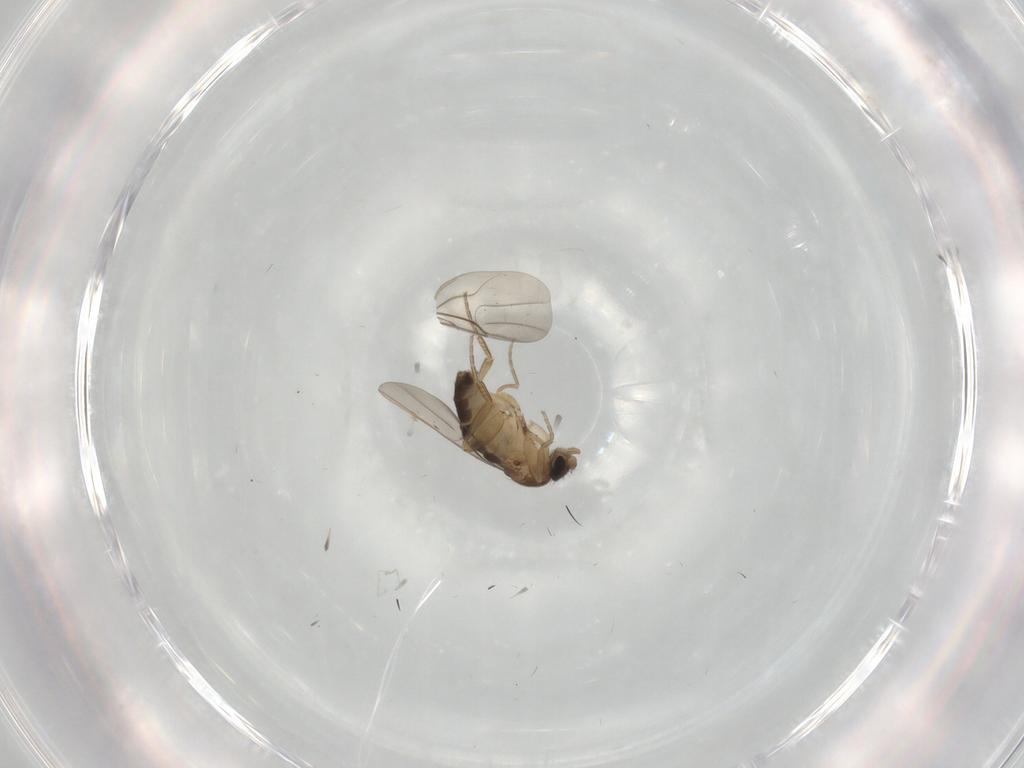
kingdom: Animalia
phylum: Arthropoda
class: Insecta
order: Diptera
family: Phoridae
